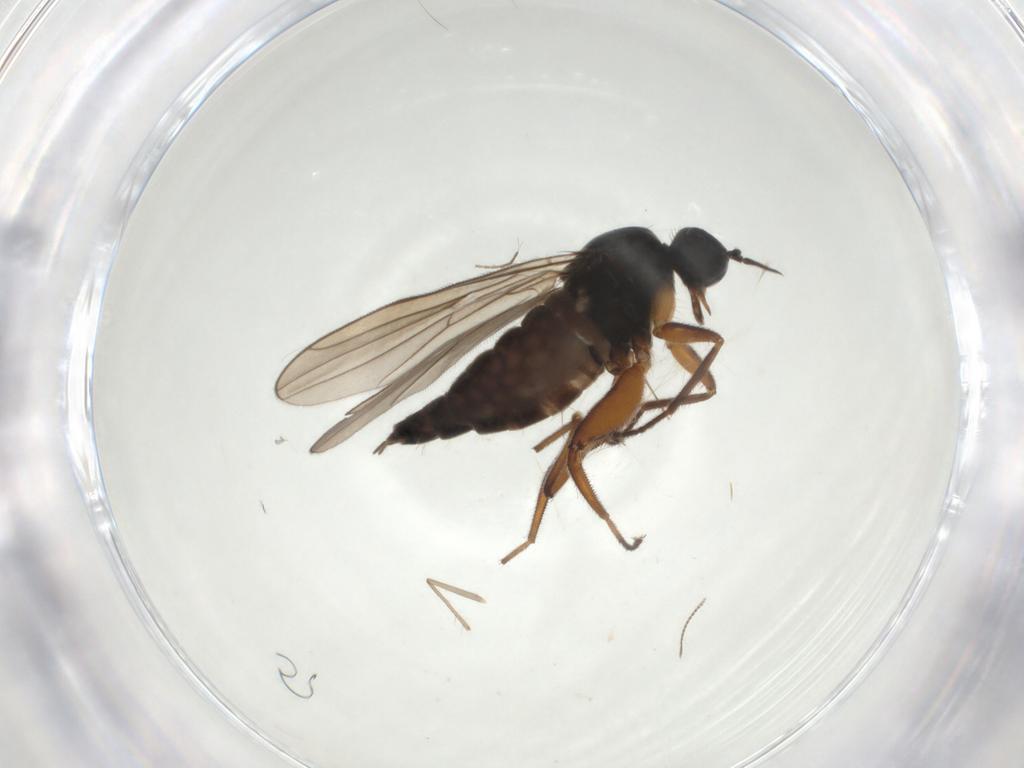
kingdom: Animalia
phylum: Arthropoda
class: Insecta
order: Diptera
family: Hybotidae
